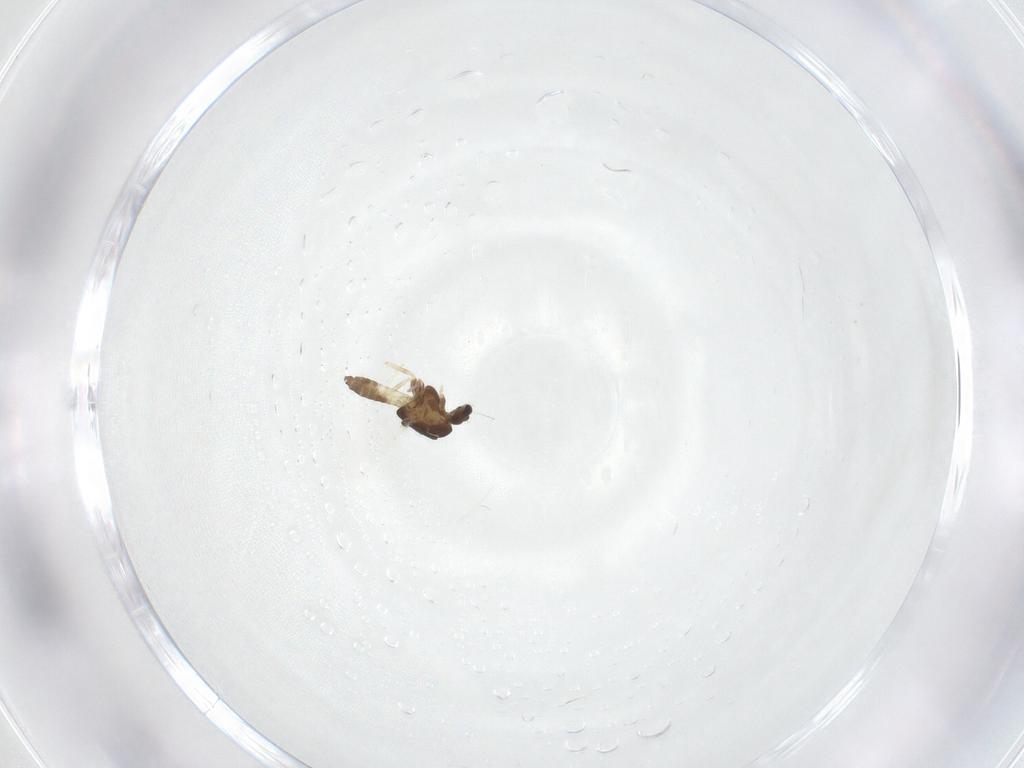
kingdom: Animalia
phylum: Arthropoda
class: Insecta
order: Diptera
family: Chironomidae
